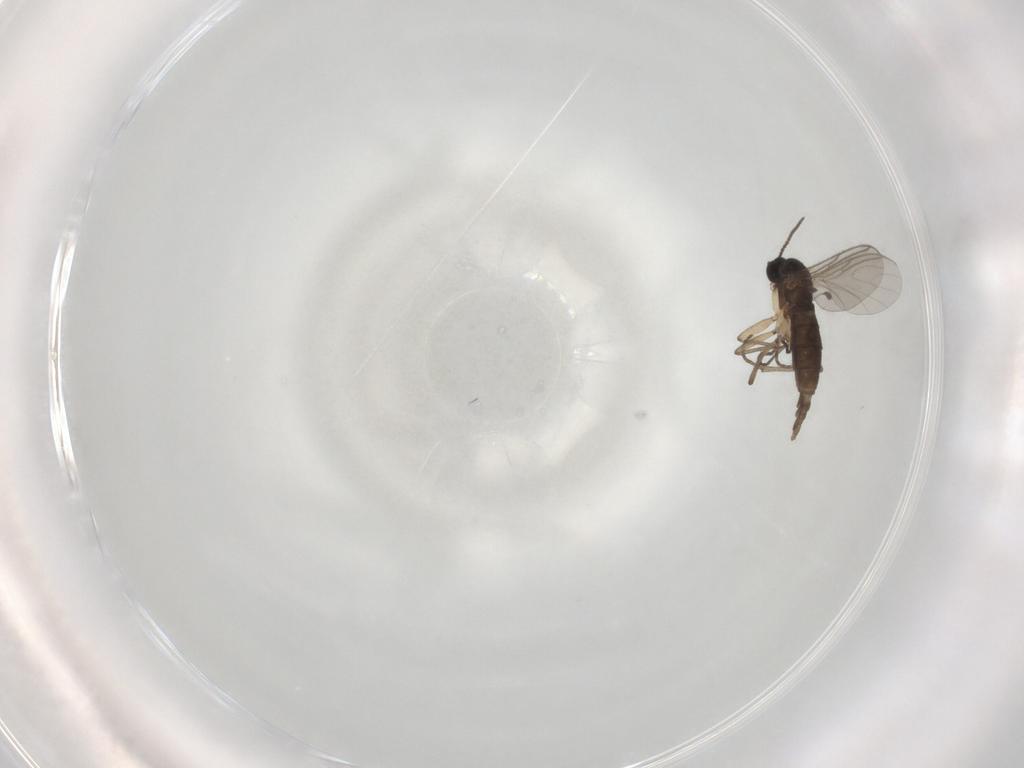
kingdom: Animalia
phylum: Arthropoda
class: Insecta
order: Diptera
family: Sciaridae
